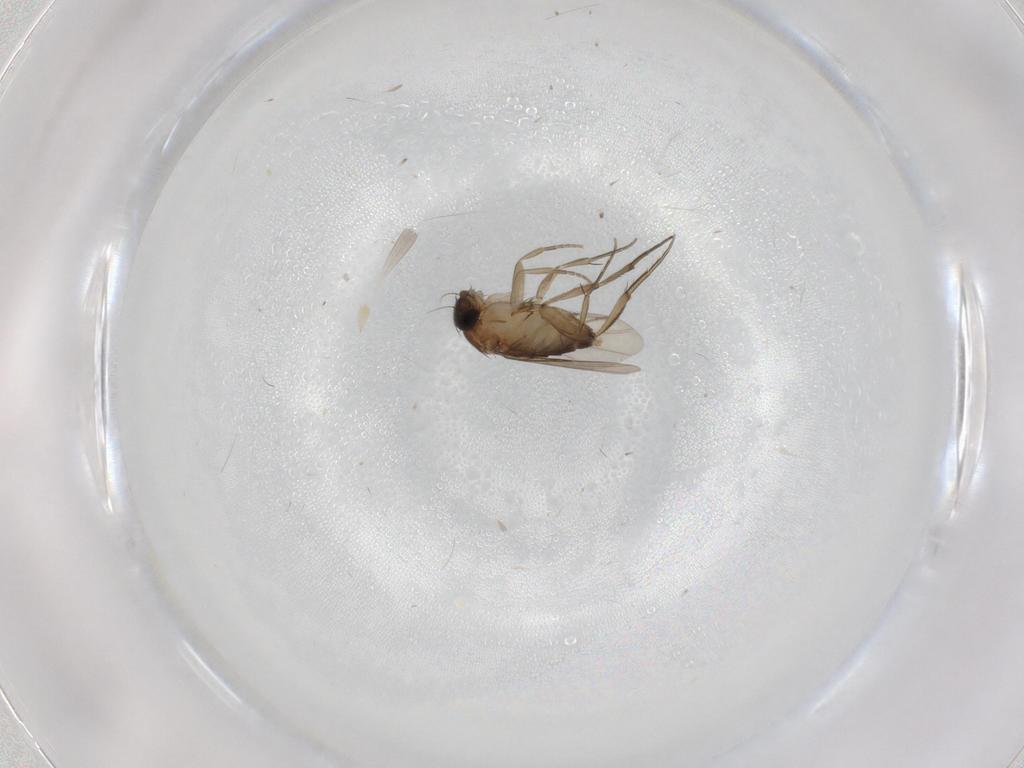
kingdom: Animalia
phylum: Arthropoda
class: Insecta
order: Diptera
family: Phoridae
